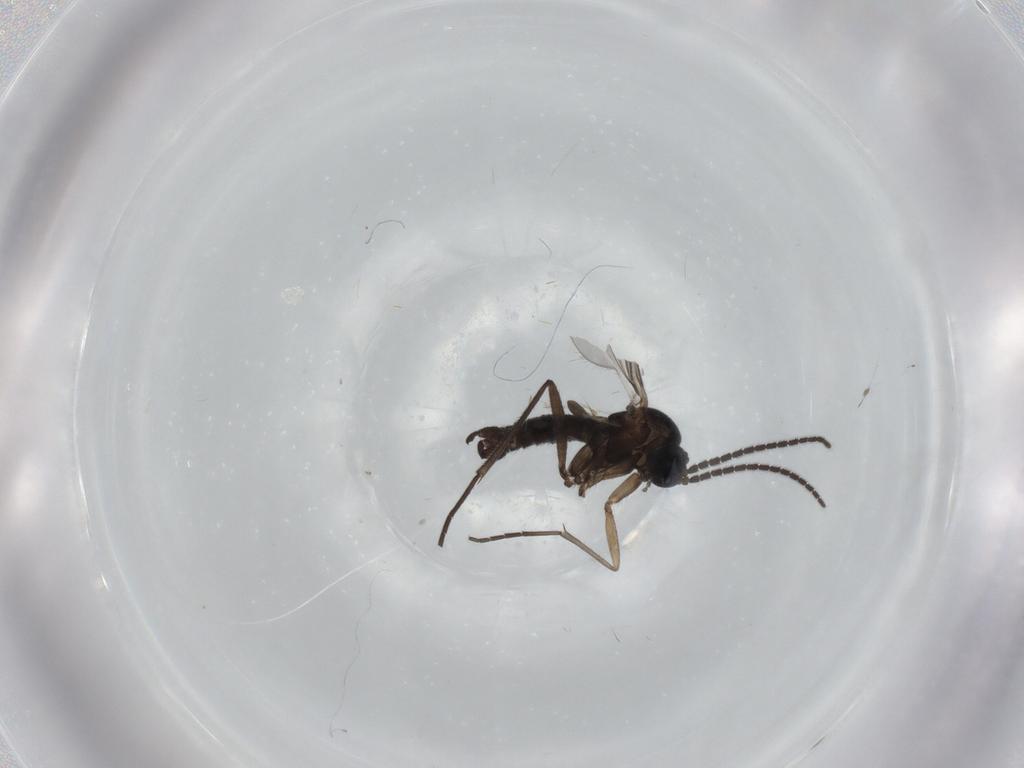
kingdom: Animalia
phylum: Arthropoda
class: Insecta
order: Diptera
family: Sciaridae
